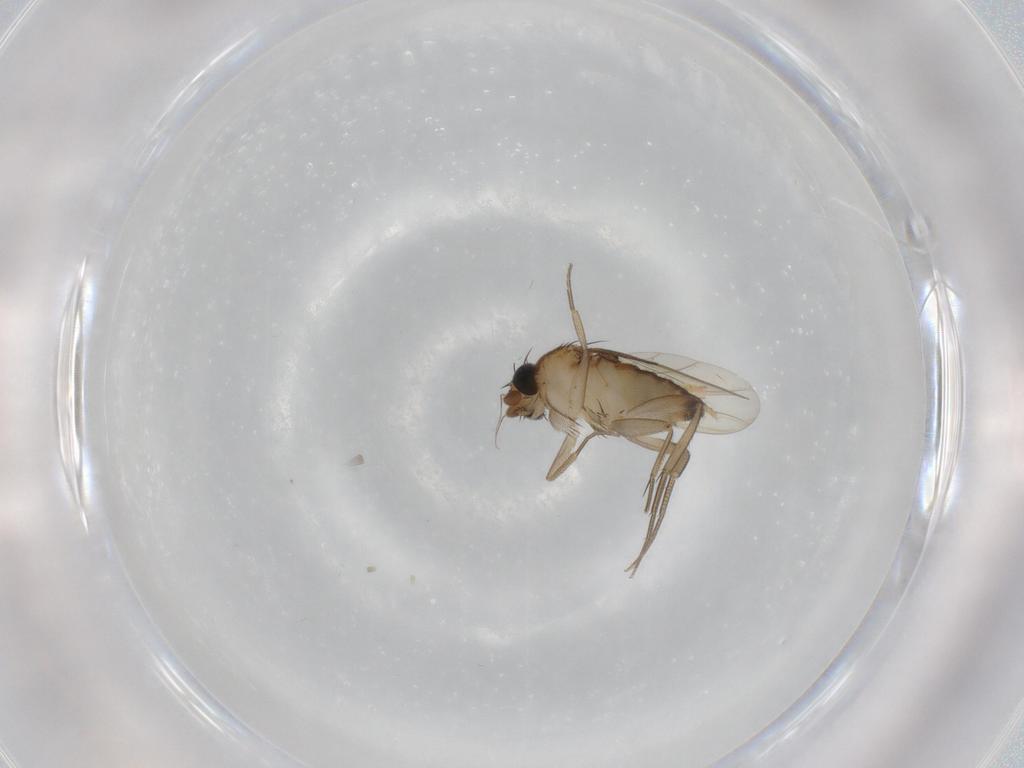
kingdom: Animalia
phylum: Arthropoda
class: Insecta
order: Diptera
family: Phoridae
